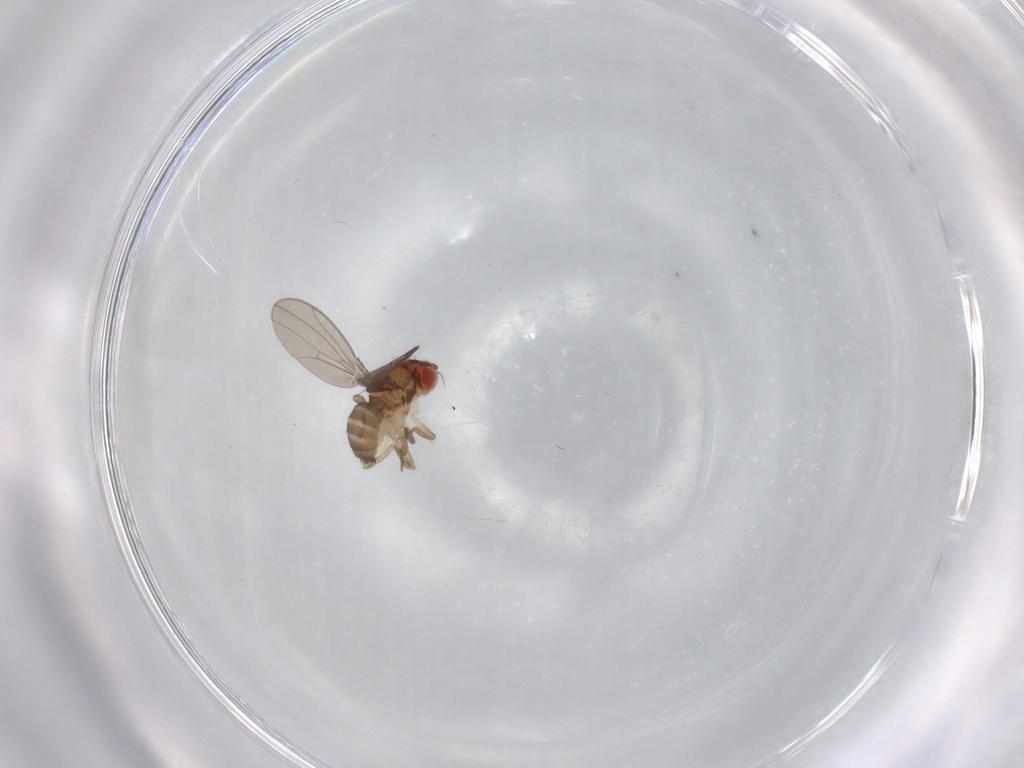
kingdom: Animalia
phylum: Arthropoda
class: Insecta
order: Diptera
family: Drosophilidae
